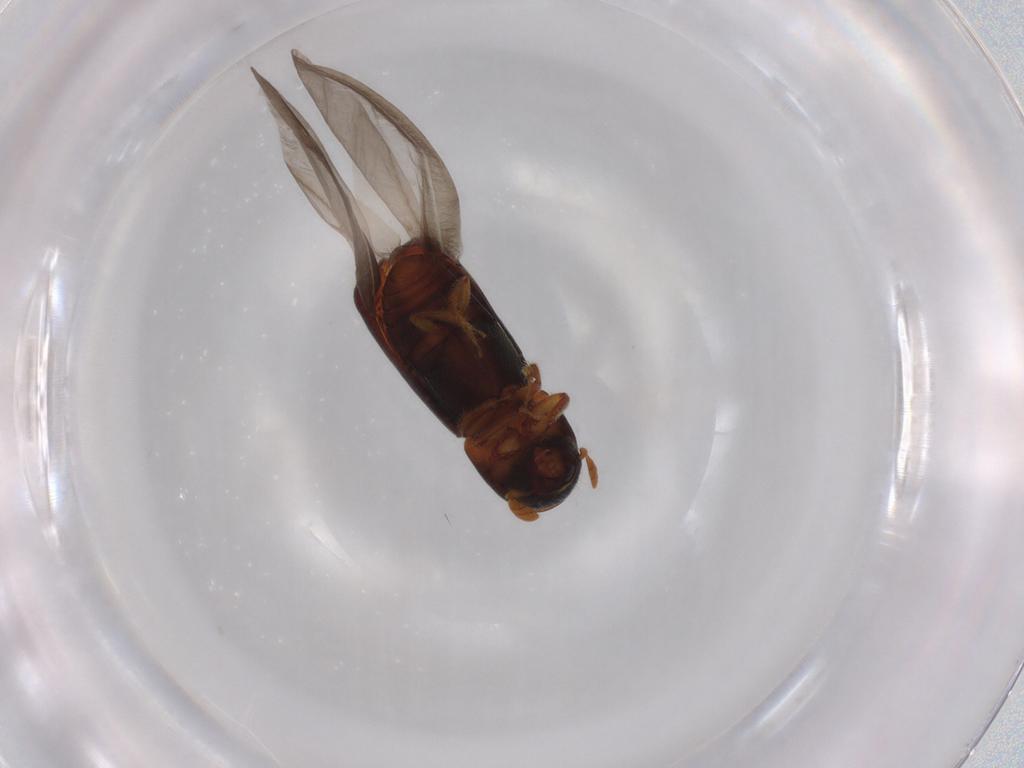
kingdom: Animalia
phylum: Arthropoda
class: Insecta
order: Coleoptera
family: Curculionidae
